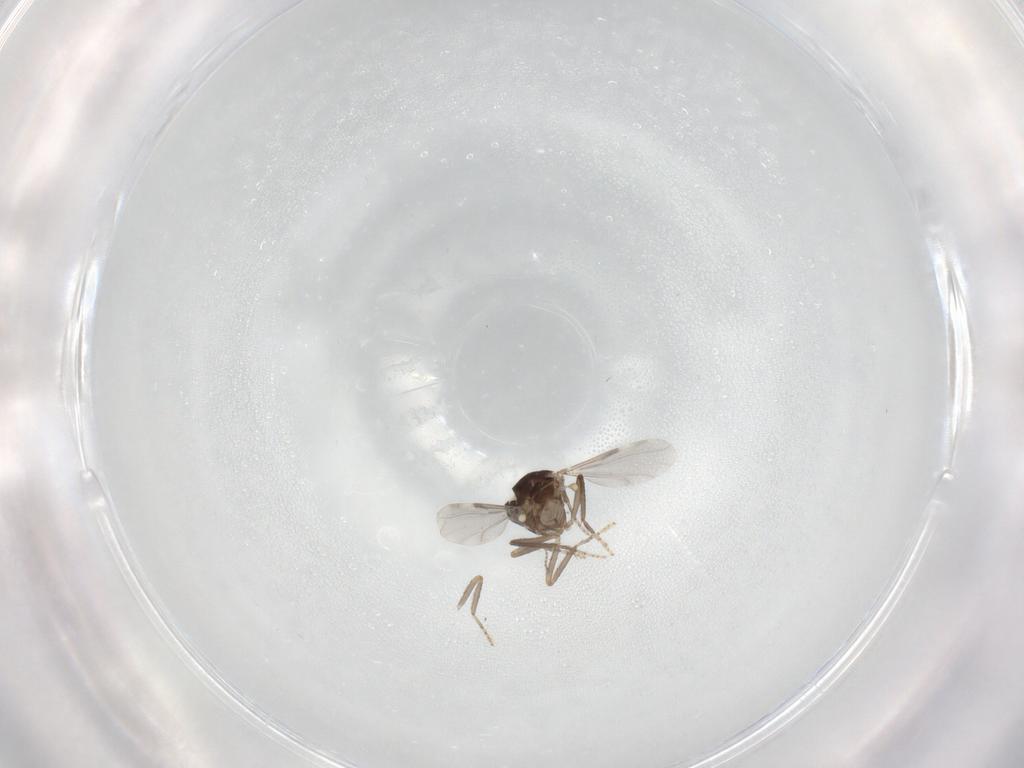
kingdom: Animalia
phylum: Arthropoda
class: Insecta
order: Diptera
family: Ceratopogonidae
